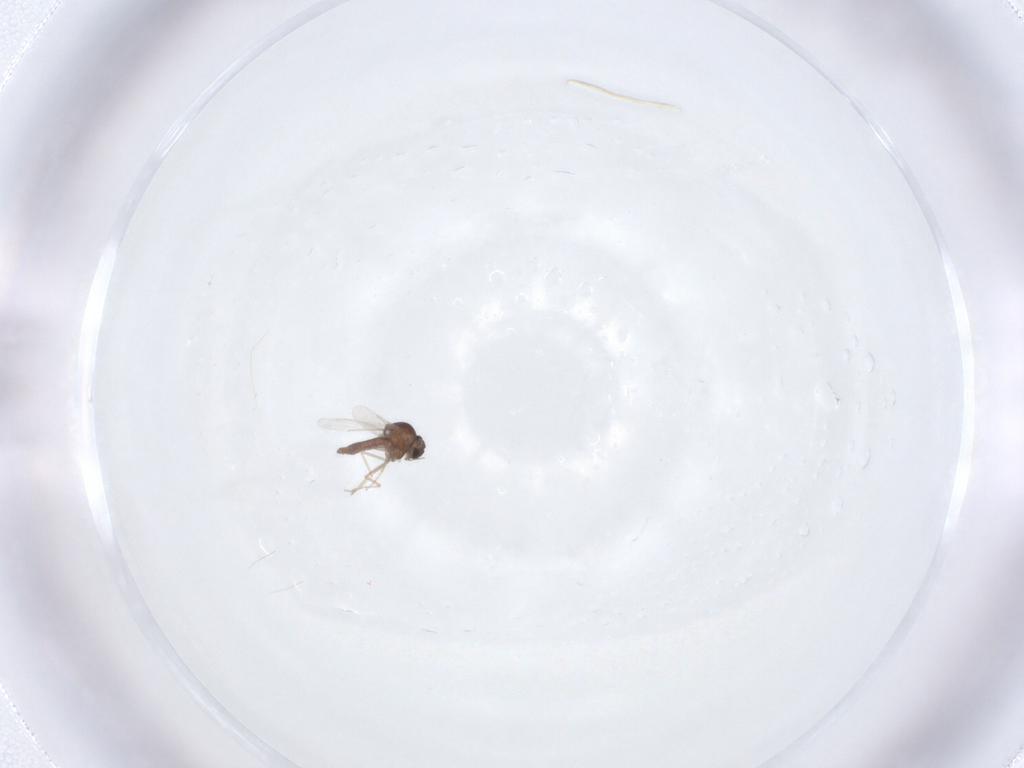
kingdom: Animalia
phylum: Arthropoda
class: Insecta
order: Diptera
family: Ceratopogonidae
